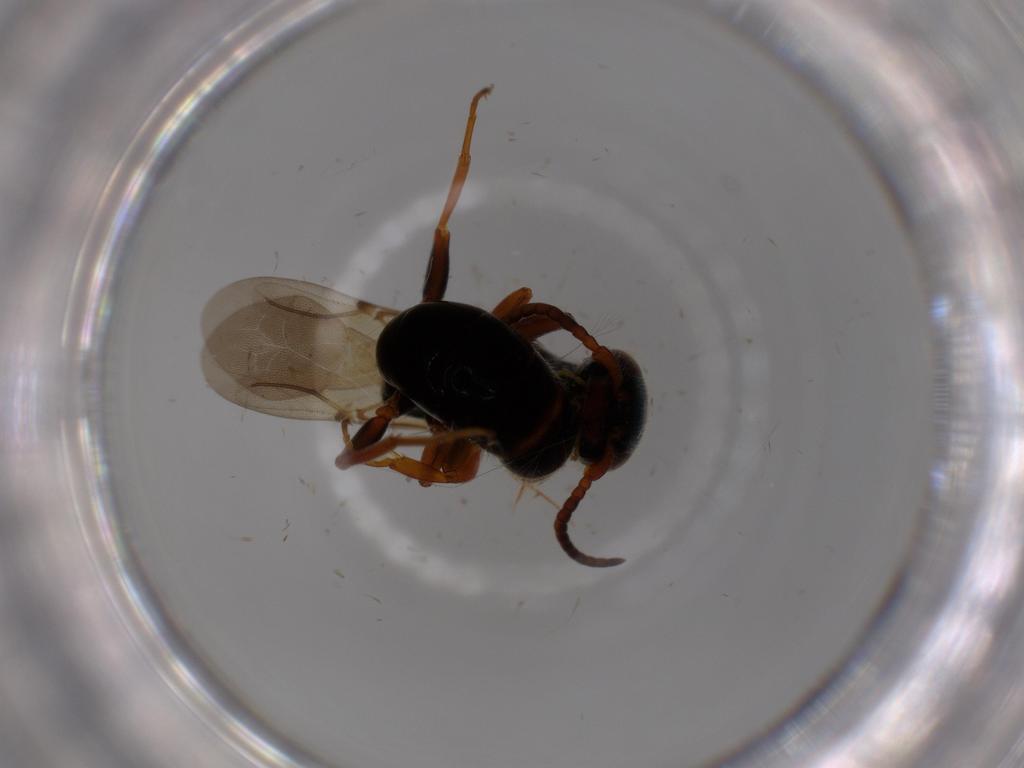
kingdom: Animalia
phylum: Arthropoda
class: Insecta
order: Hymenoptera
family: Bethylidae
